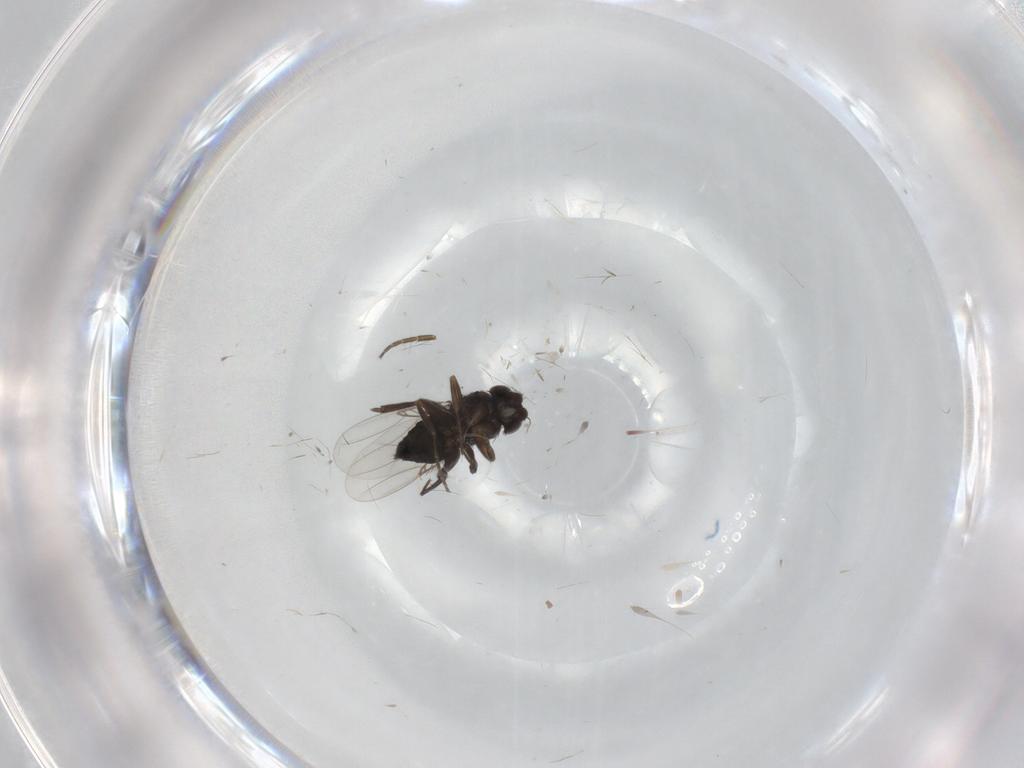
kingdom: Animalia
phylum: Arthropoda
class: Insecta
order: Diptera
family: Phoridae
